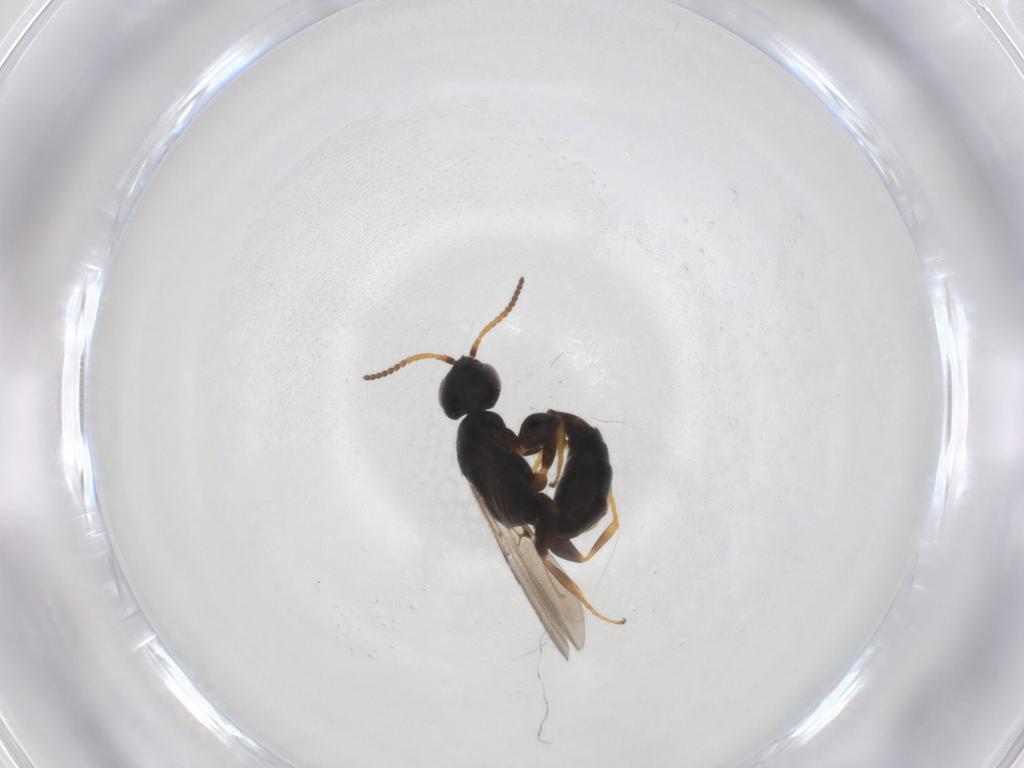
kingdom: Animalia
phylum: Arthropoda
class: Insecta
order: Hymenoptera
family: Bethylidae
